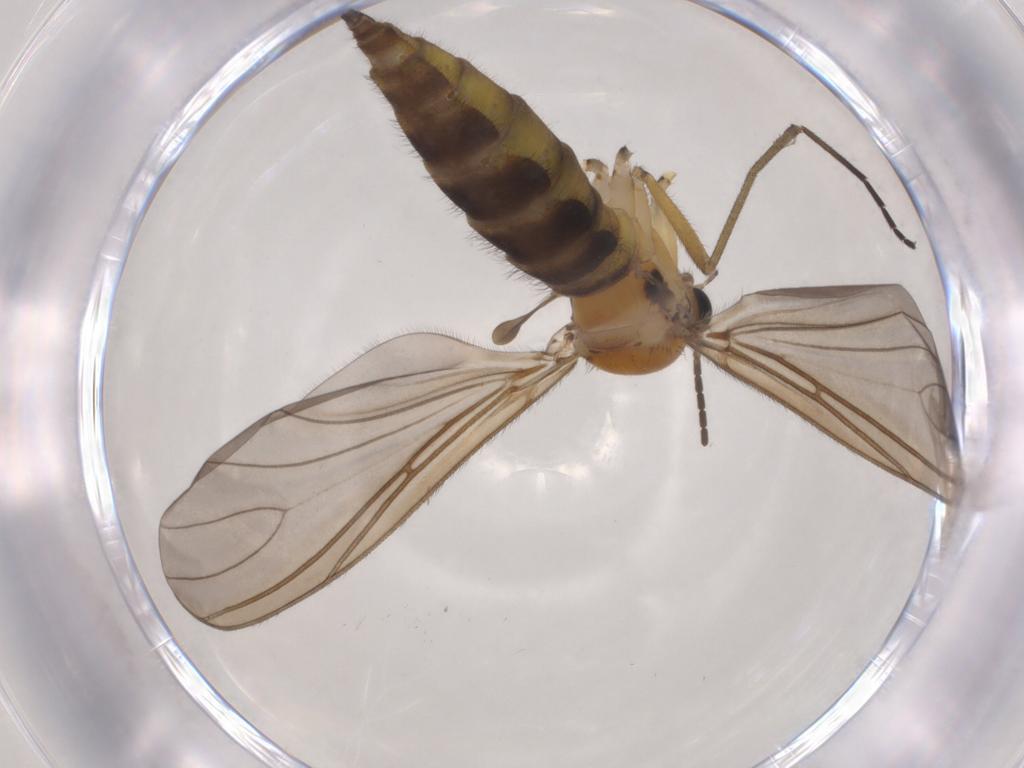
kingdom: Animalia
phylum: Arthropoda
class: Insecta
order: Diptera
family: Sciaridae
